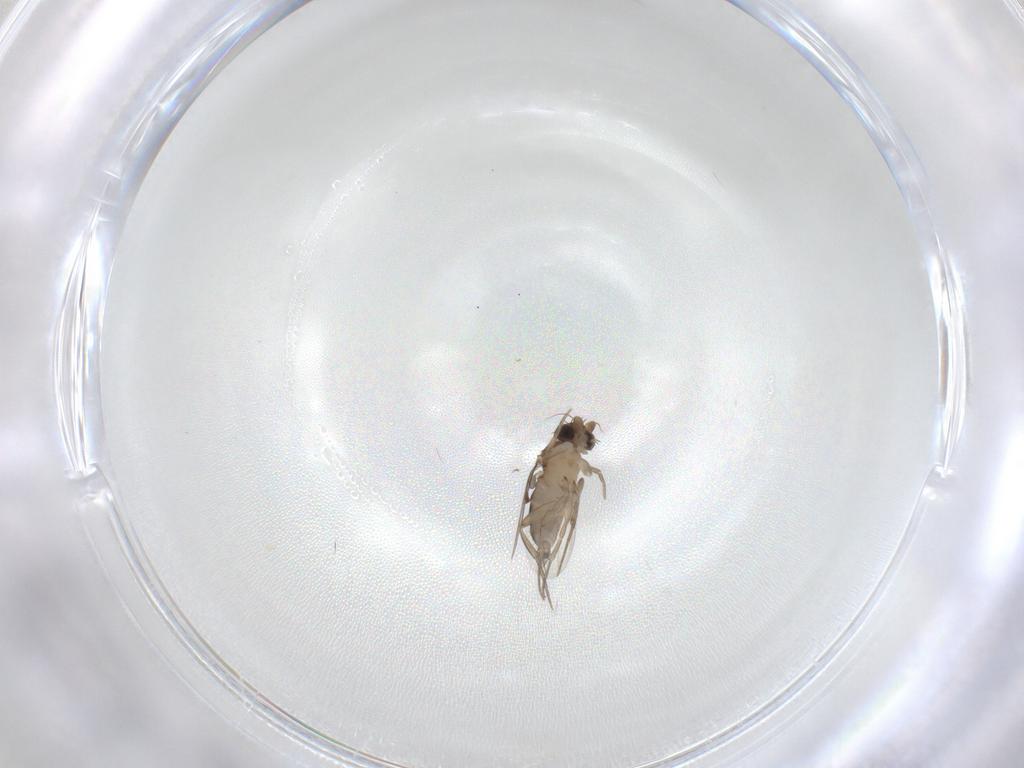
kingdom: Animalia
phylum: Arthropoda
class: Insecta
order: Diptera
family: Phoridae
